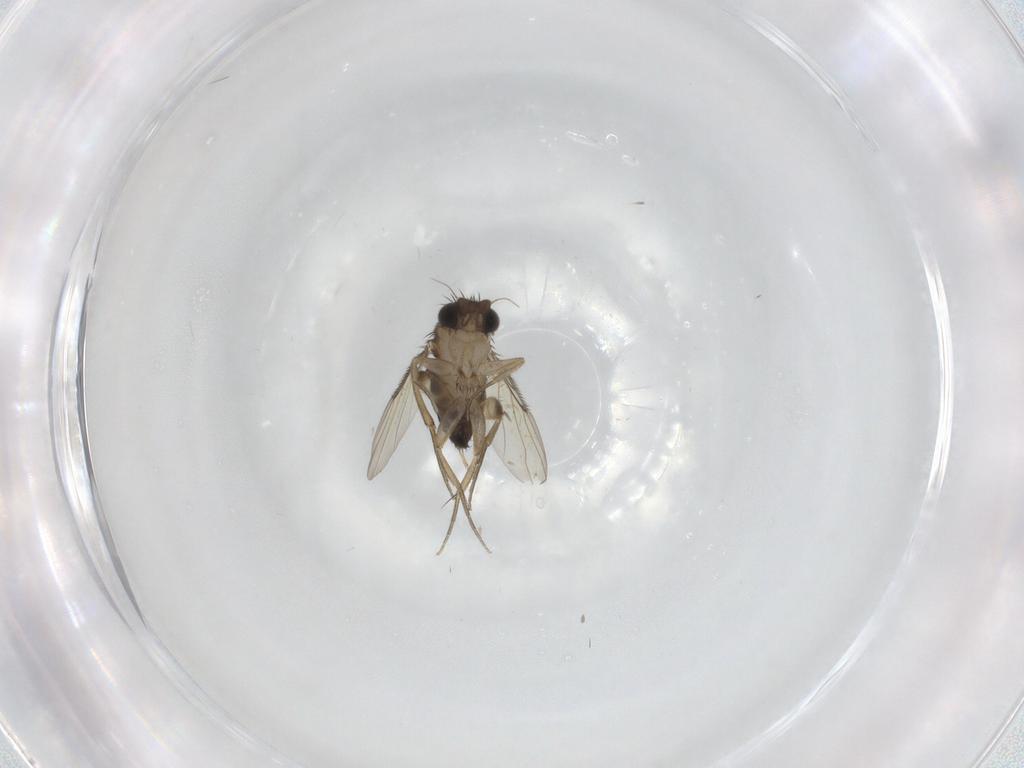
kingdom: Animalia
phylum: Arthropoda
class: Insecta
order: Diptera
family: Phoridae
